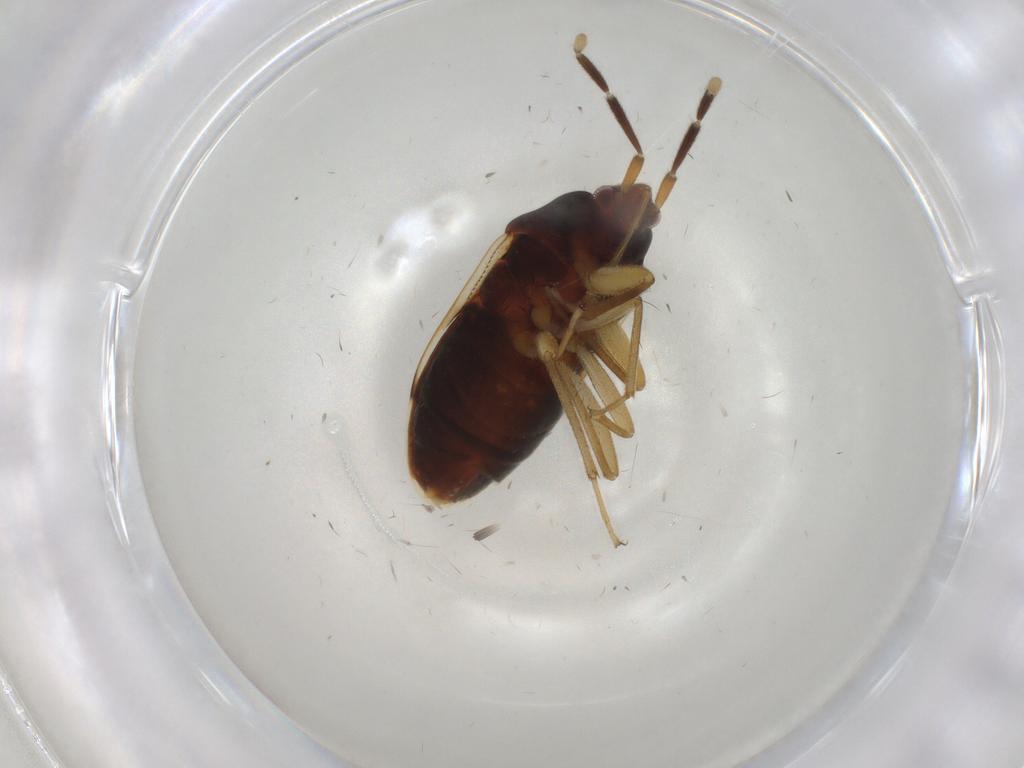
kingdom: Animalia
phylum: Arthropoda
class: Insecta
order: Hemiptera
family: Rhyparochromidae
